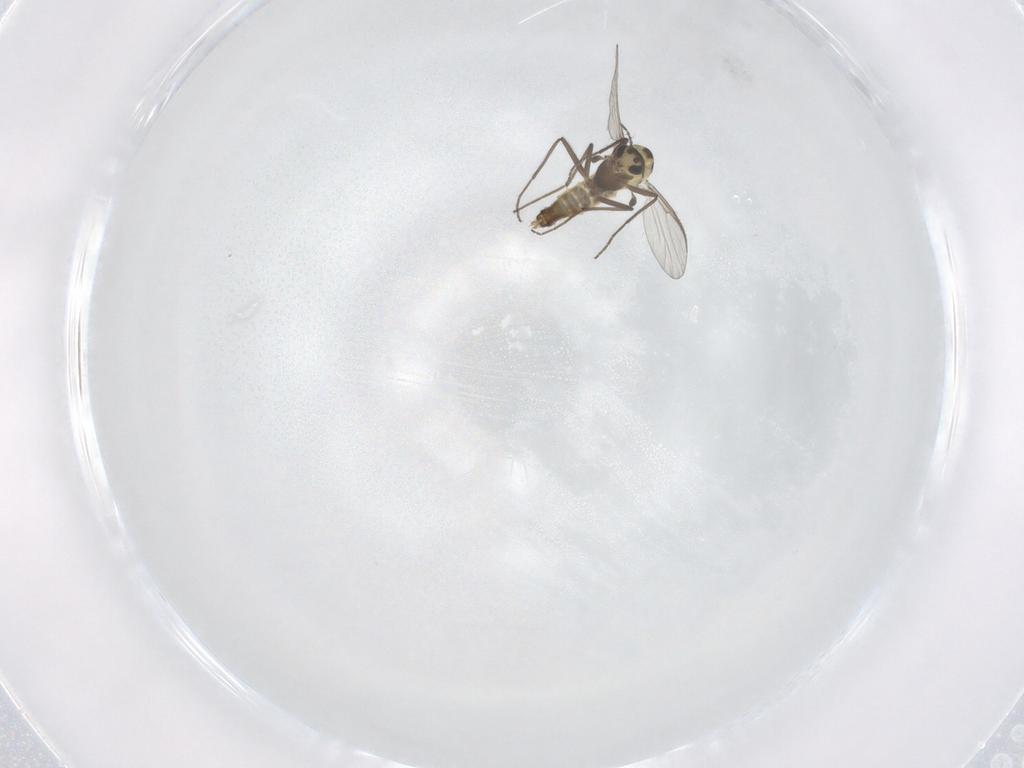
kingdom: Animalia
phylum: Arthropoda
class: Insecta
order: Diptera
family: Chironomidae
